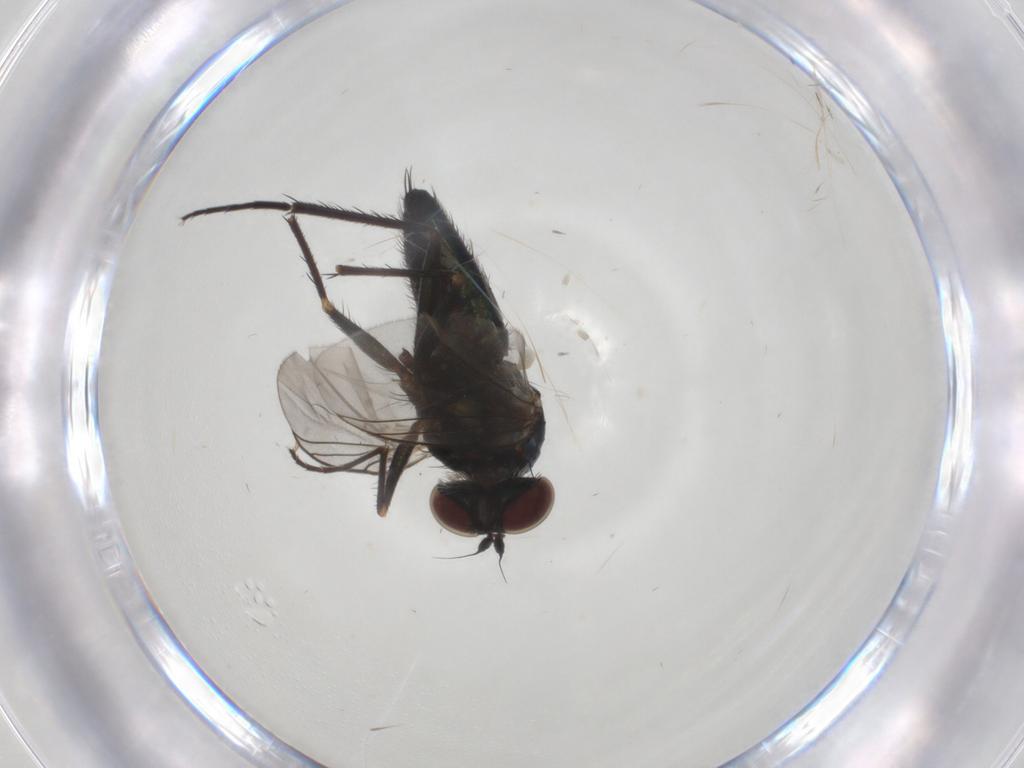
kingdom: Animalia
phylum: Arthropoda
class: Insecta
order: Diptera
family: Dolichopodidae
